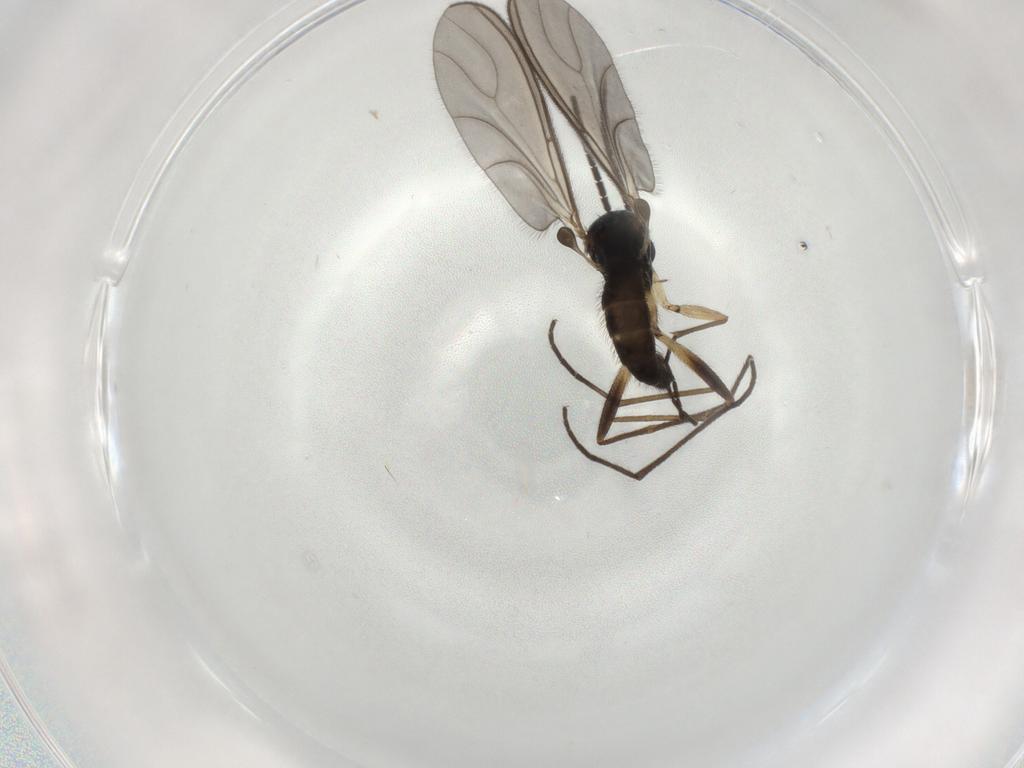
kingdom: Animalia
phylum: Arthropoda
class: Insecta
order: Diptera
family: Sciaridae
